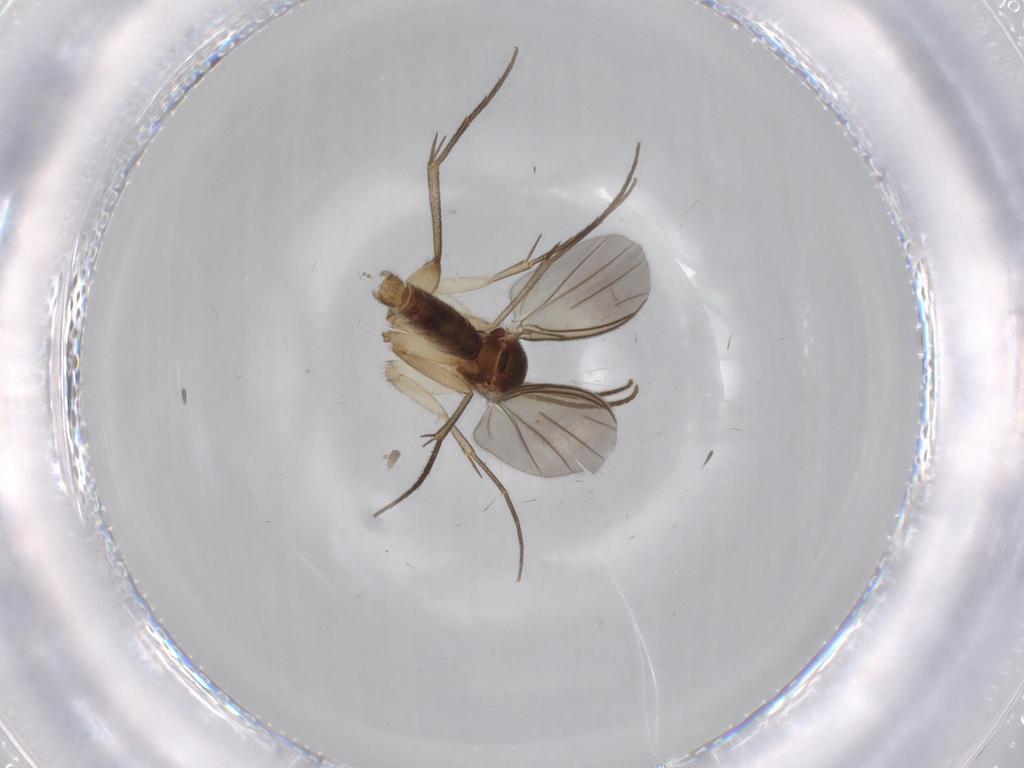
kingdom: Animalia
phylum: Arthropoda
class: Insecta
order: Diptera
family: Mycetophilidae
